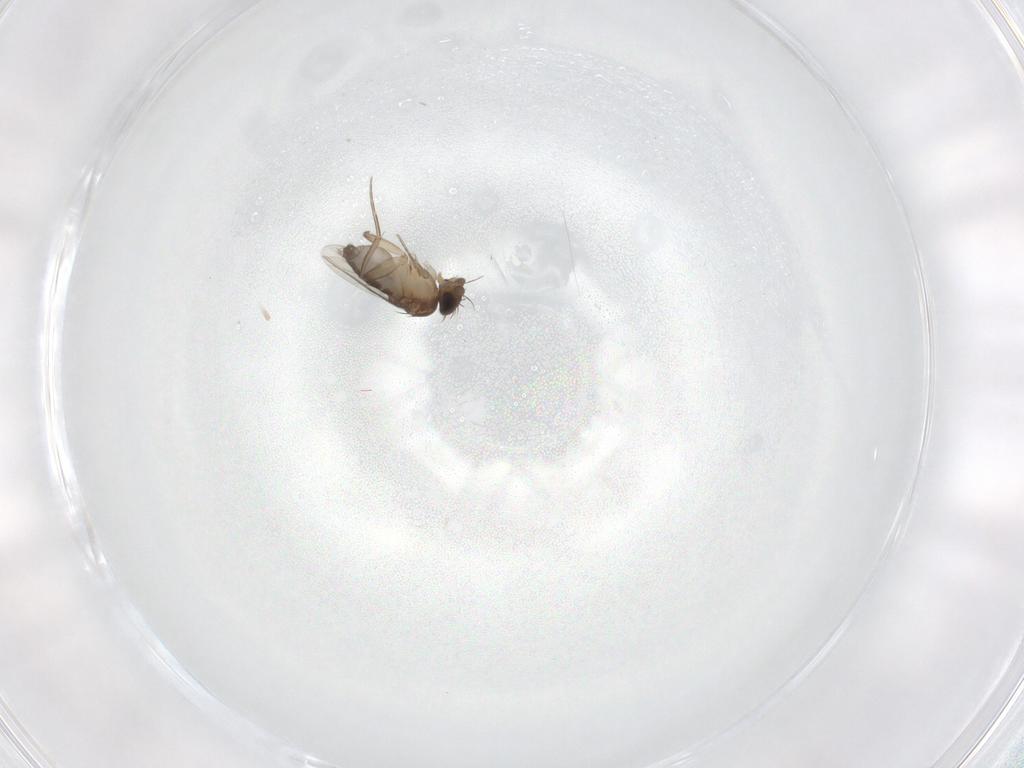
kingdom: Animalia
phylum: Arthropoda
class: Insecta
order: Diptera
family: Phoridae
